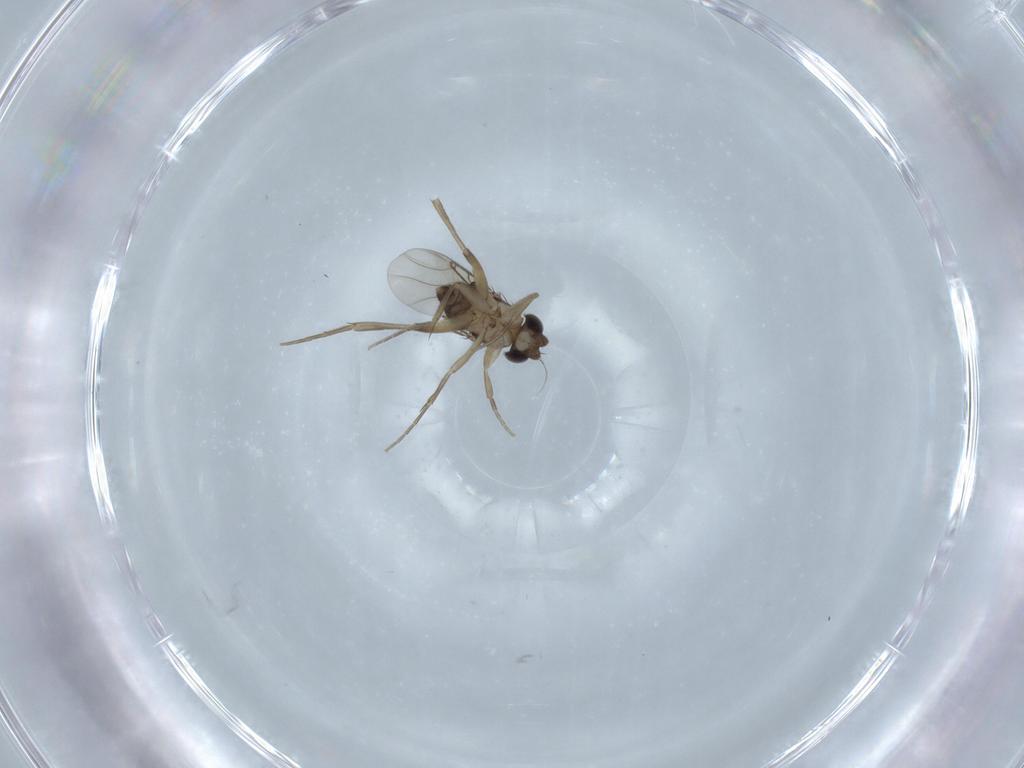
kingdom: Animalia
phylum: Arthropoda
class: Insecta
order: Diptera
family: Phoridae
